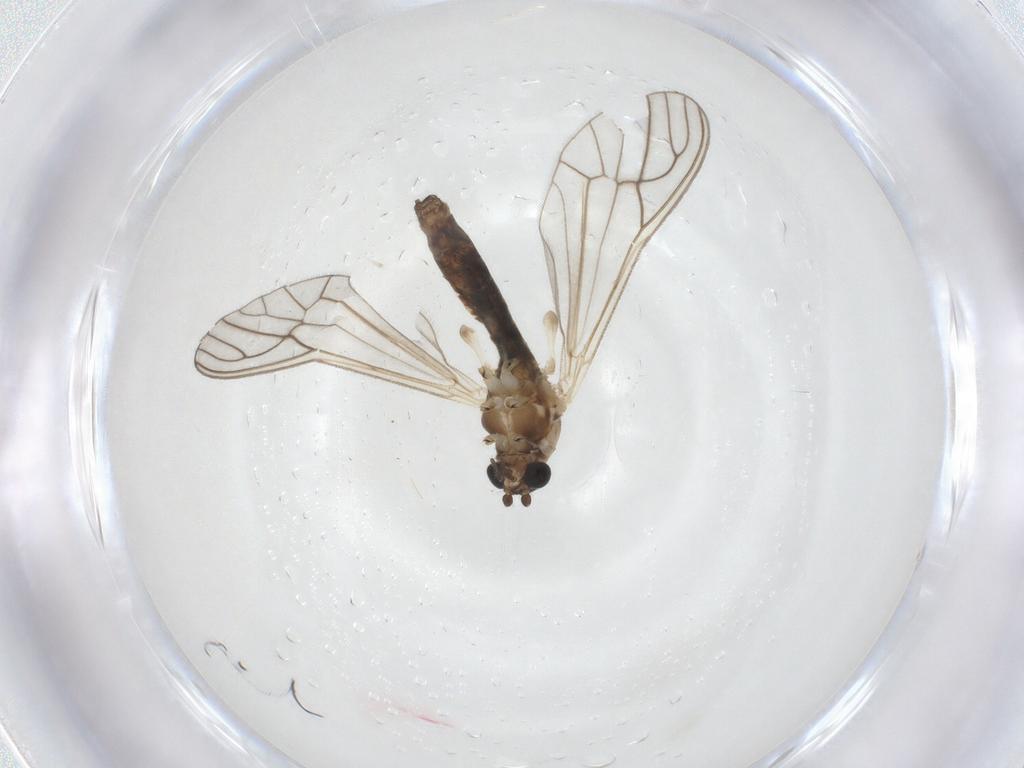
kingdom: Animalia
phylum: Arthropoda
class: Insecta
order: Diptera
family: Dixidae
